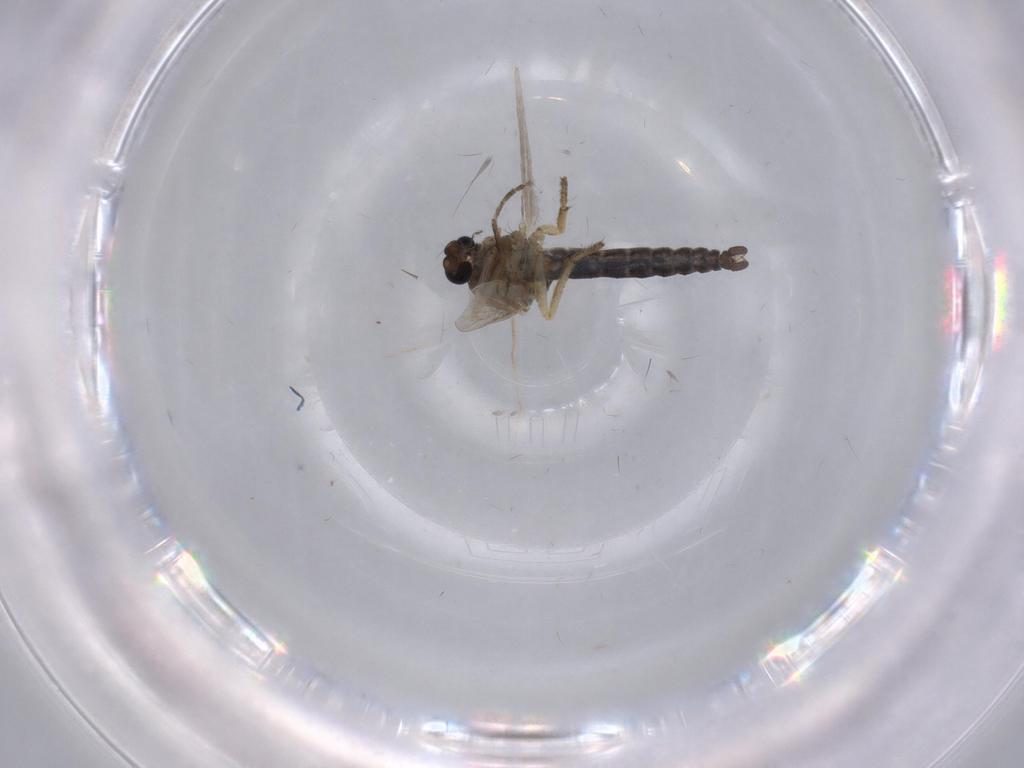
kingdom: Animalia
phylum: Arthropoda
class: Insecta
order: Diptera
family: Ceratopogonidae
